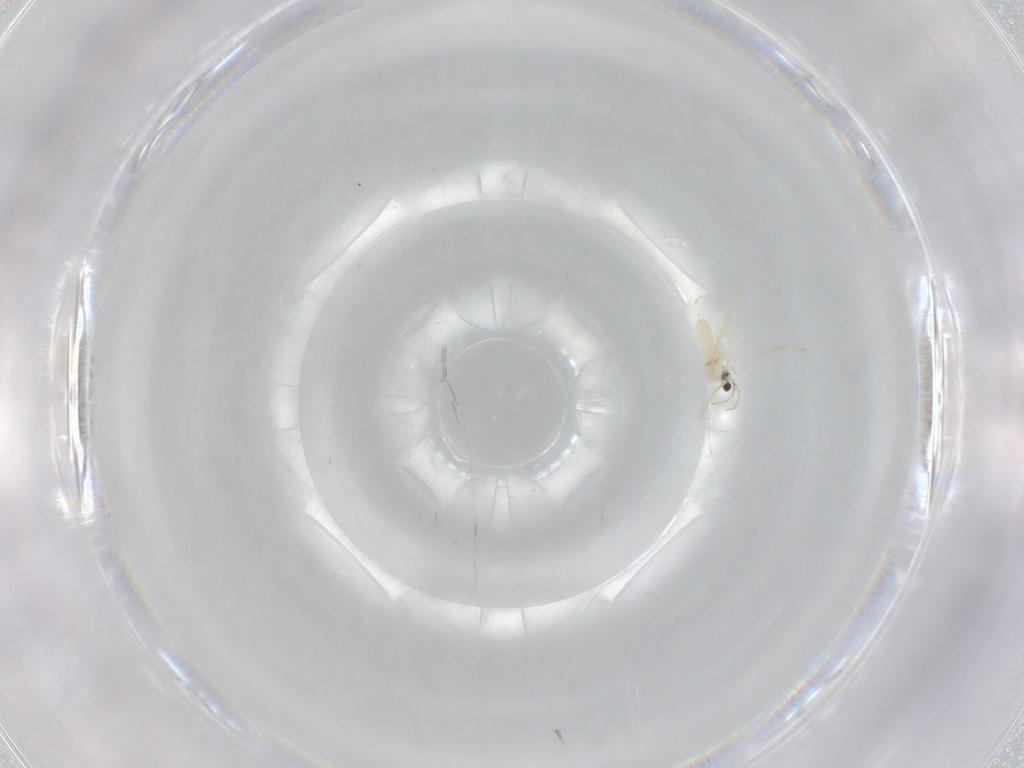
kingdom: Animalia
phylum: Arthropoda
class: Insecta
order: Diptera
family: Cecidomyiidae
